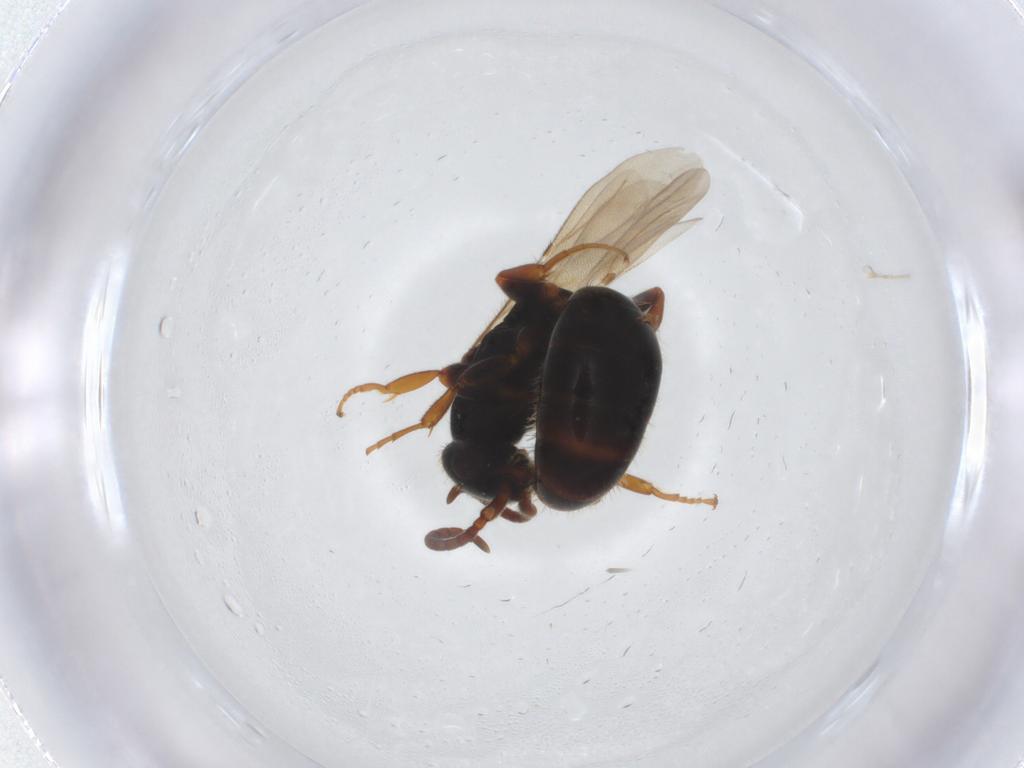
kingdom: Animalia
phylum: Arthropoda
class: Insecta
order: Hymenoptera
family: Bethylidae
